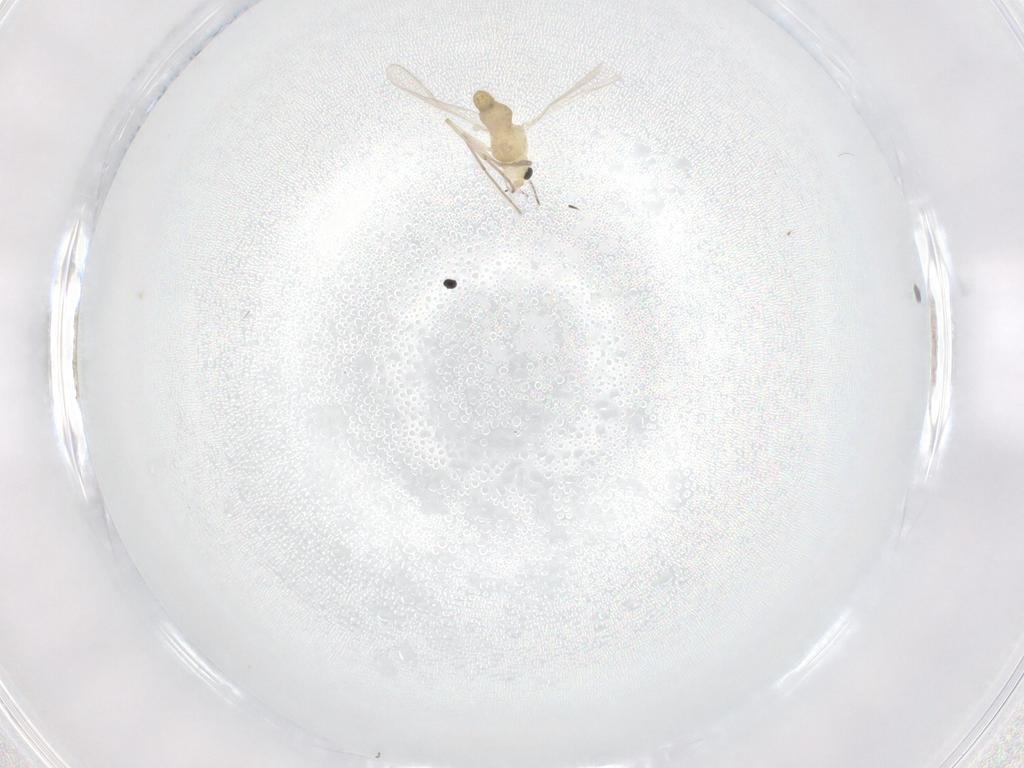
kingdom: Animalia
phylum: Arthropoda
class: Insecta
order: Diptera
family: Chironomidae
